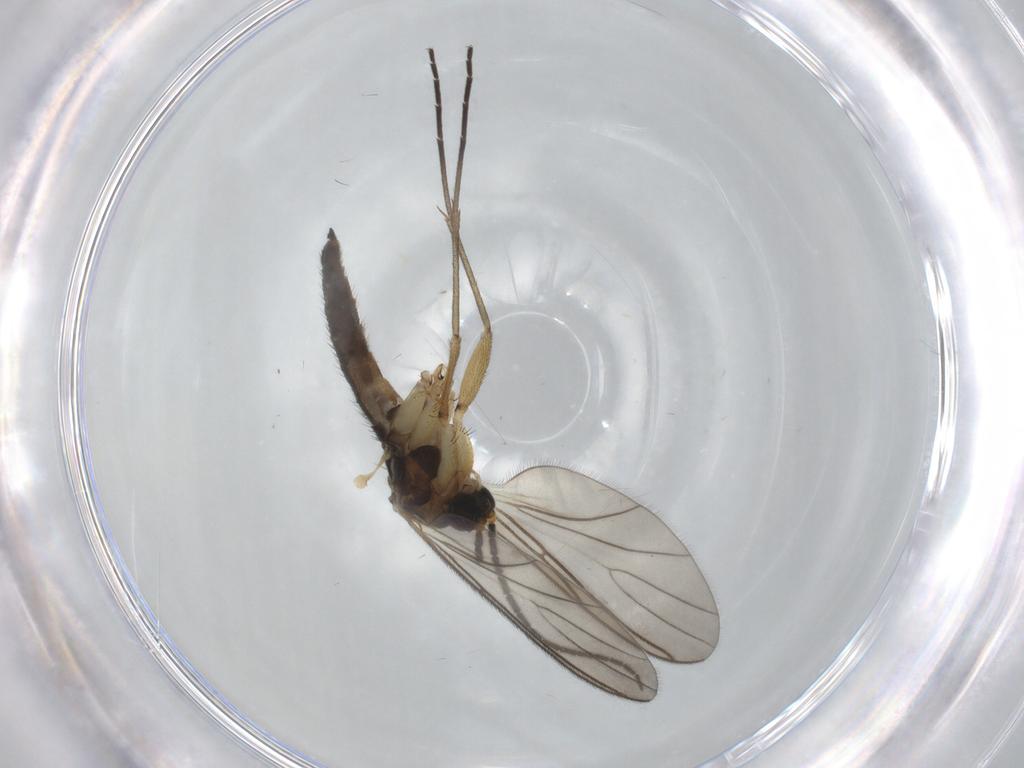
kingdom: Animalia
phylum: Arthropoda
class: Insecta
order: Diptera
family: Sciaridae
